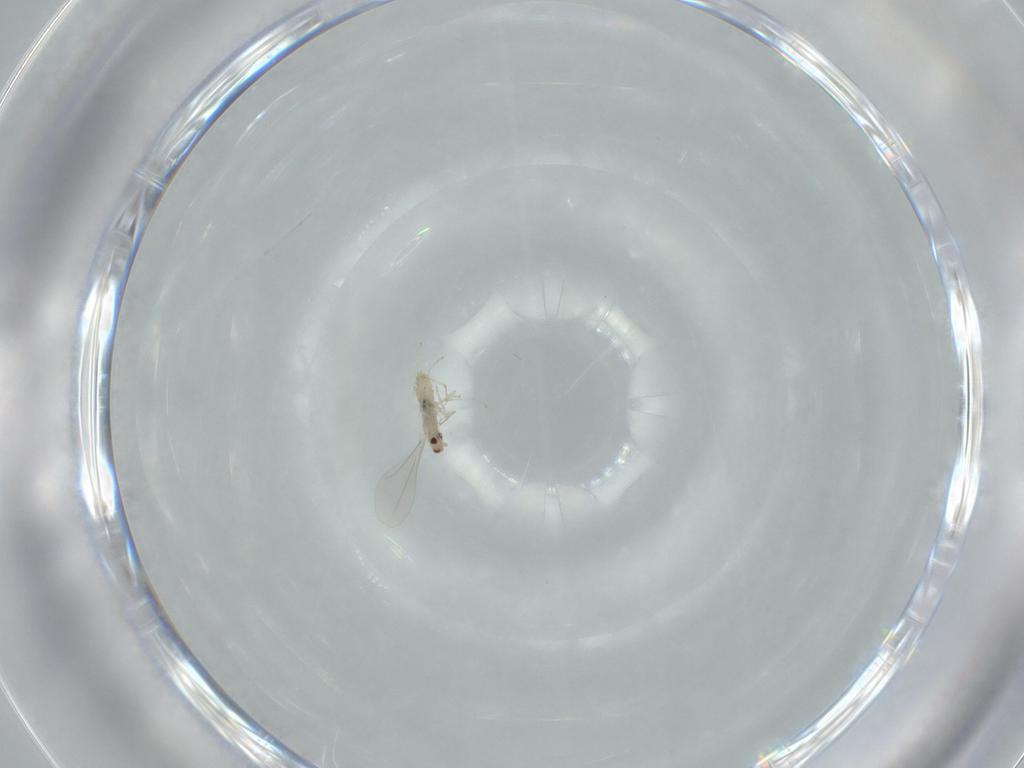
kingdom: Animalia
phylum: Arthropoda
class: Insecta
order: Diptera
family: Cecidomyiidae
